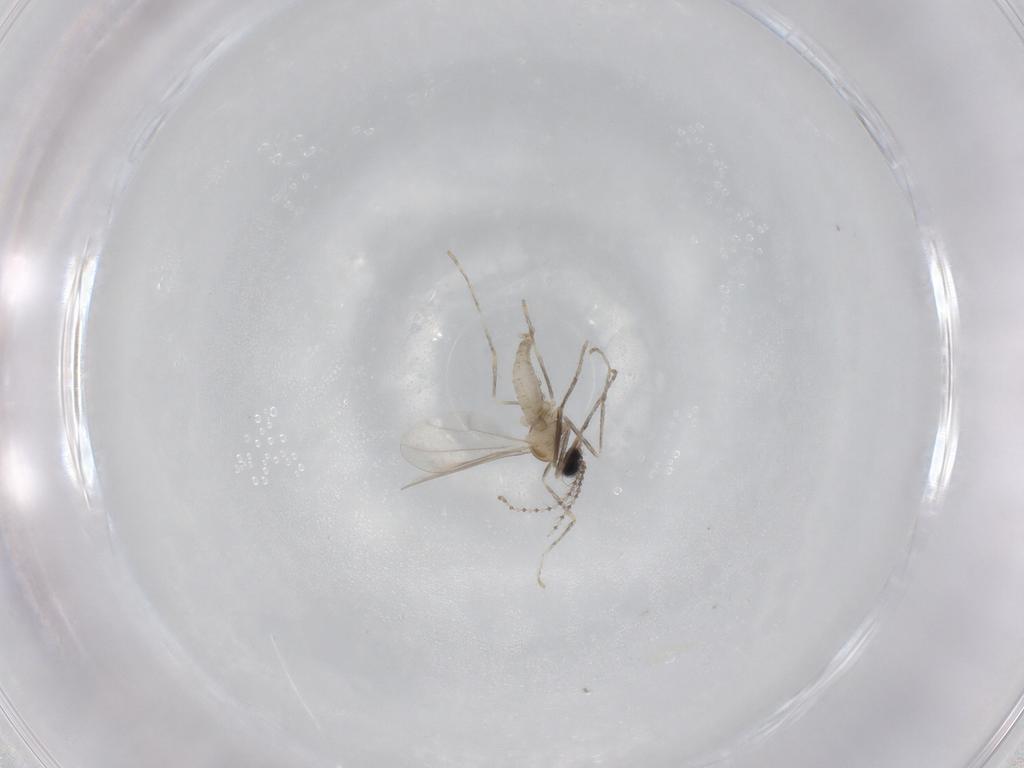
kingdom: Animalia
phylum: Arthropoda
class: Insecta
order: Diptera
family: Cecidomyiidae
